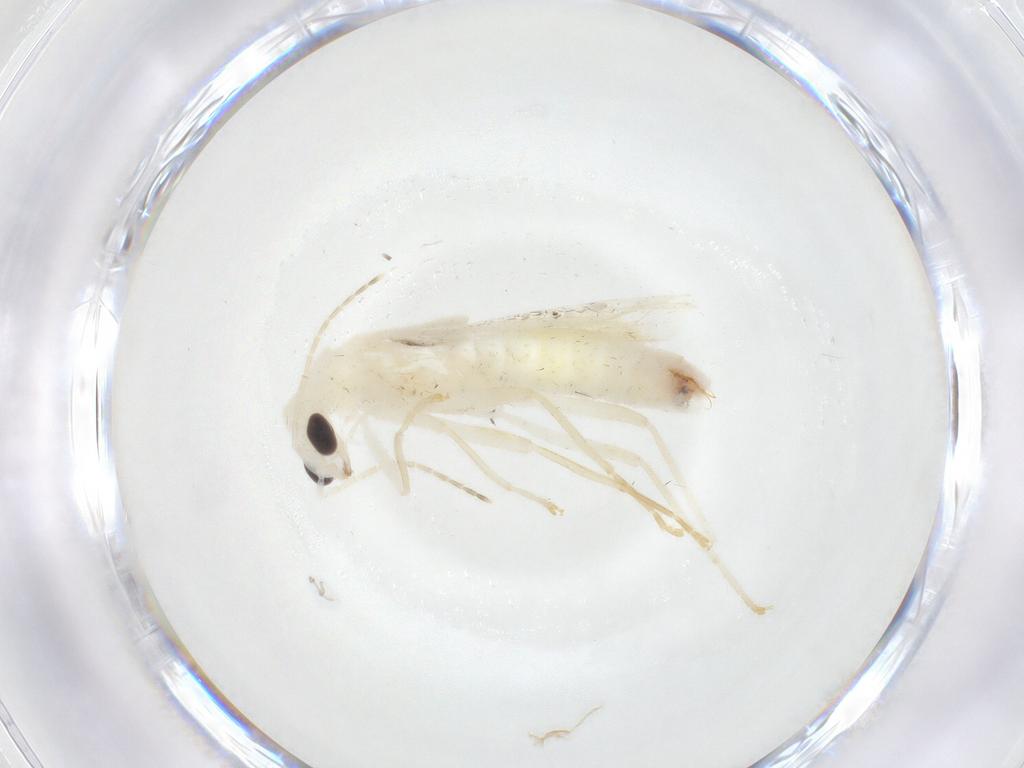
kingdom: Animalia
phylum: Arthropoda
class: Insecta
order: Coleoptera
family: Cantharidae
